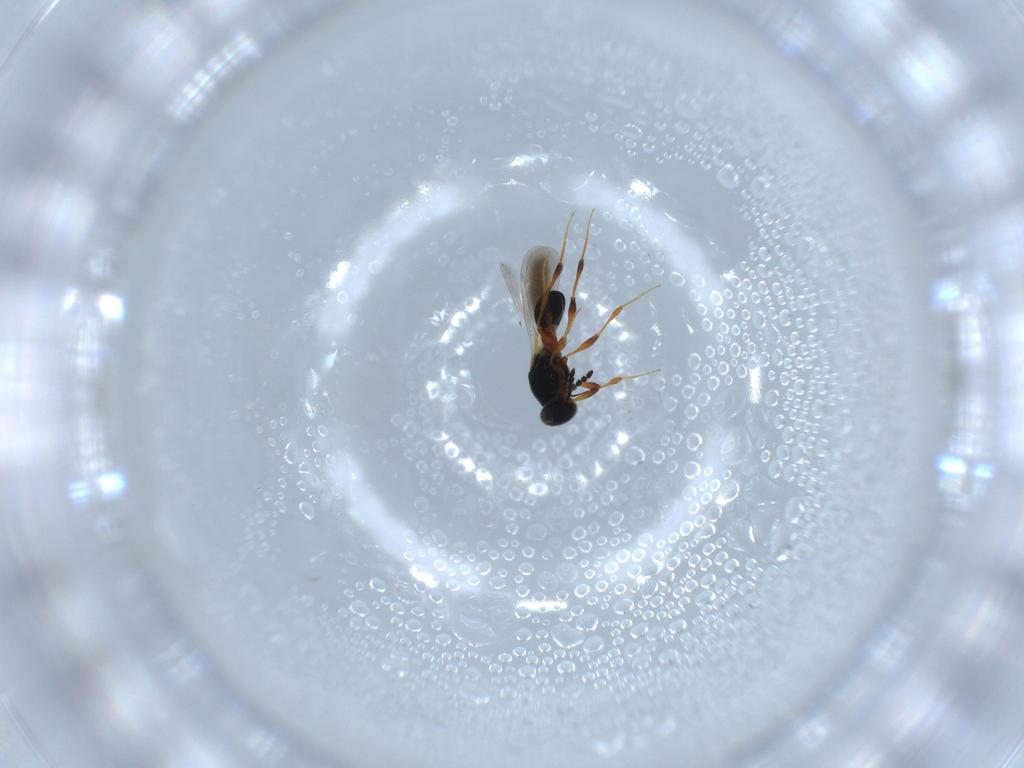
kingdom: Animalia
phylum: Arthropoda
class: Insecta
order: Hymenoptera
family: Platygastridae
